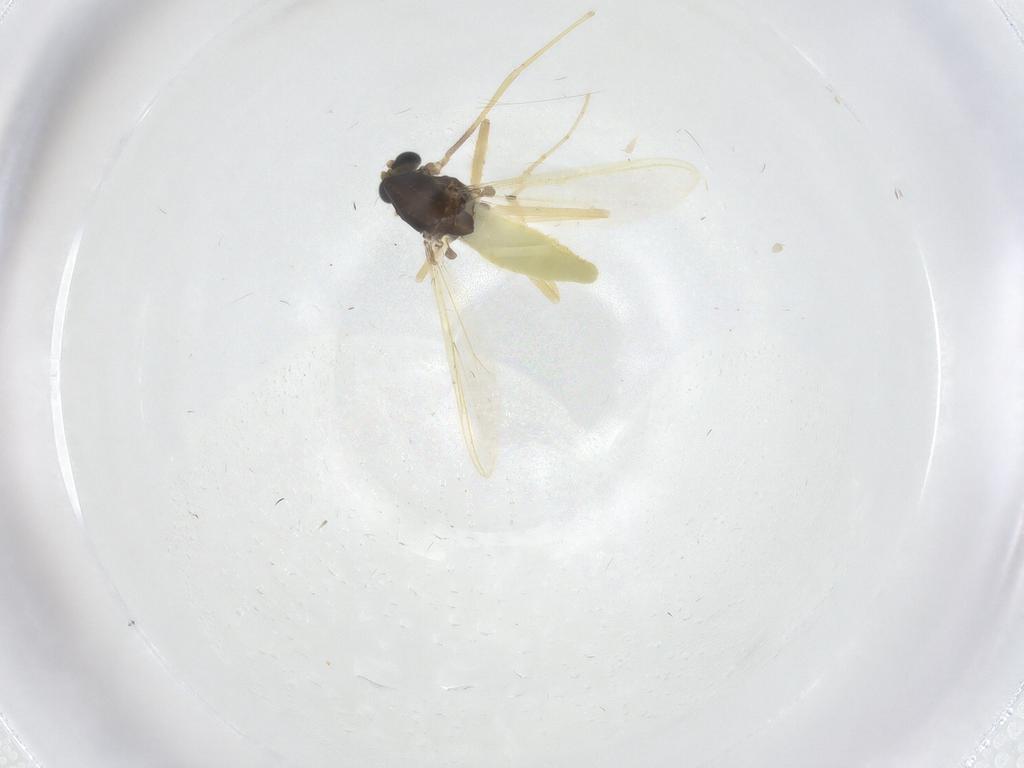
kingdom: Animalia
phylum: Arthropoda
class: Insecta
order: Diptera
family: Chironomidae
